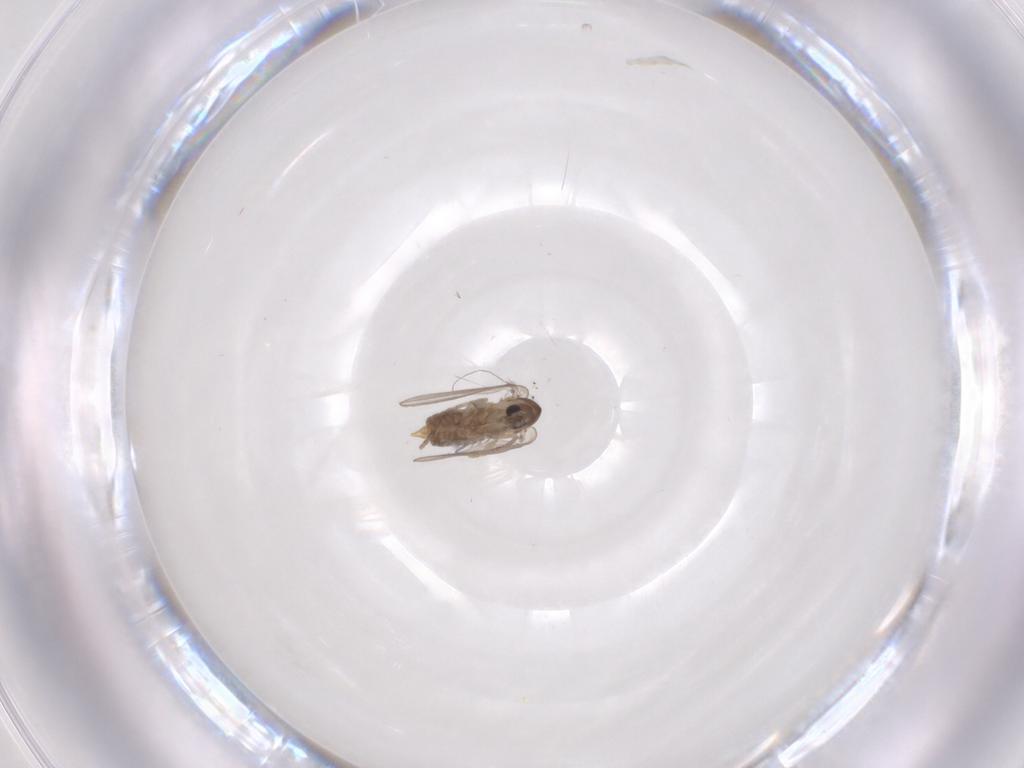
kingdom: Animalia
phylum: Arthropoda
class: Insecta
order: Diptera
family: Psychodidae
